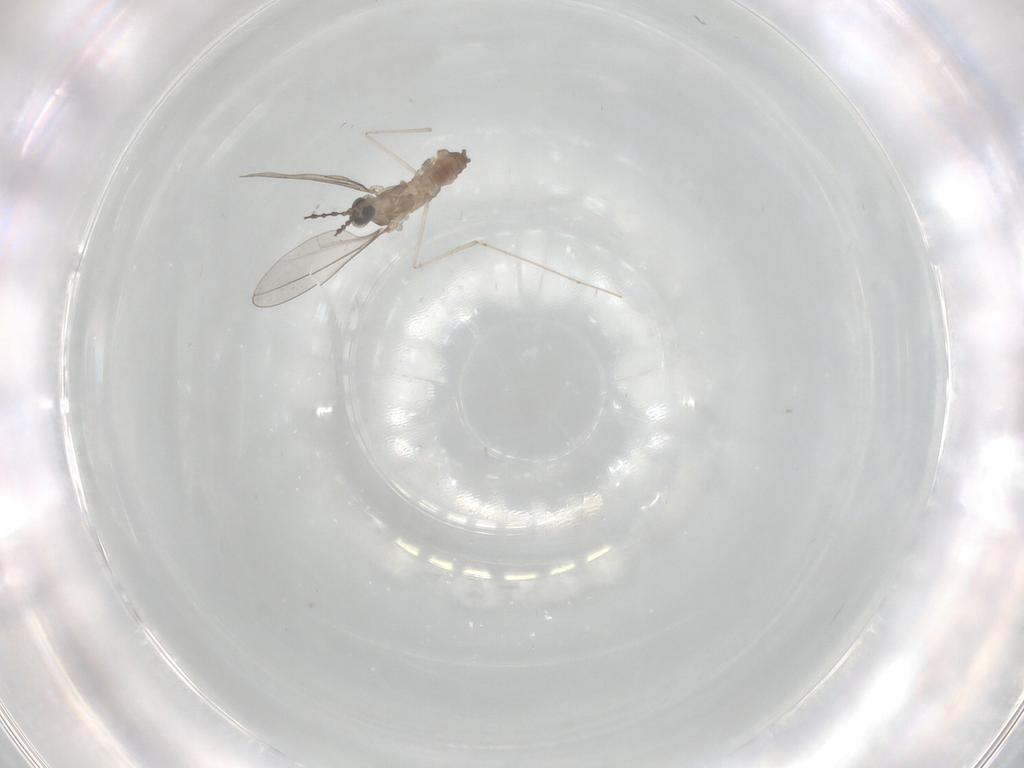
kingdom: Animalia
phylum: Arthropoda
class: Insecta
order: Diptera
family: Cecidomyiidae
